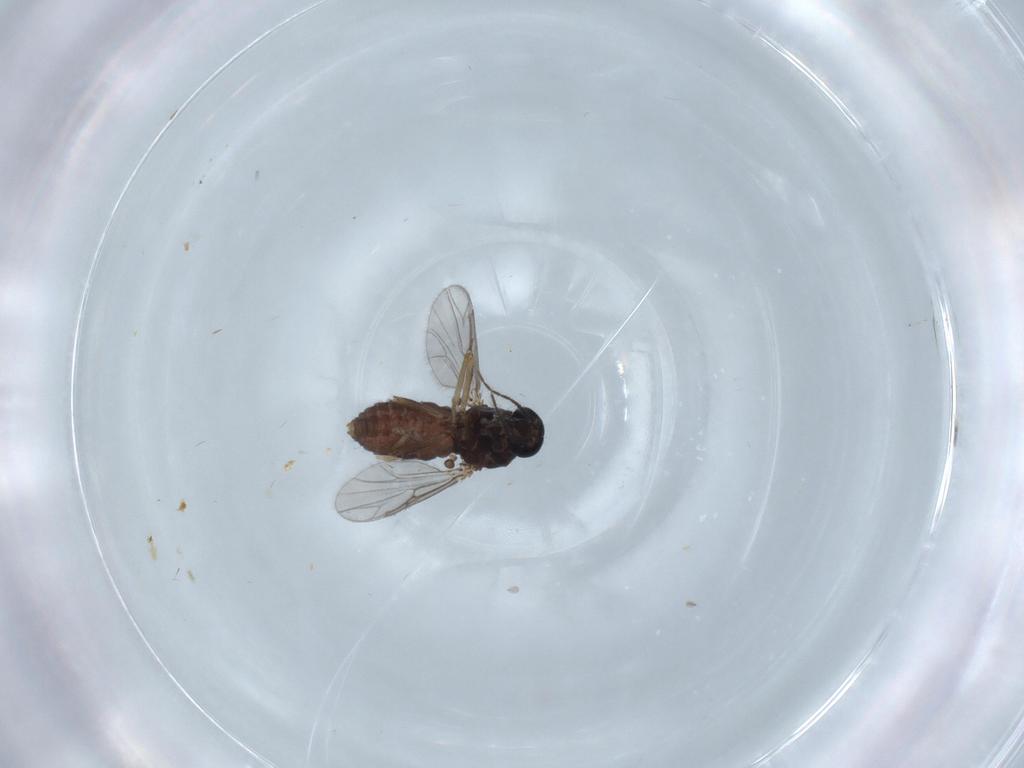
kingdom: Animalia
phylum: Arthropoda
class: Insecta
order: Diptera
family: Ceratopogonidae
